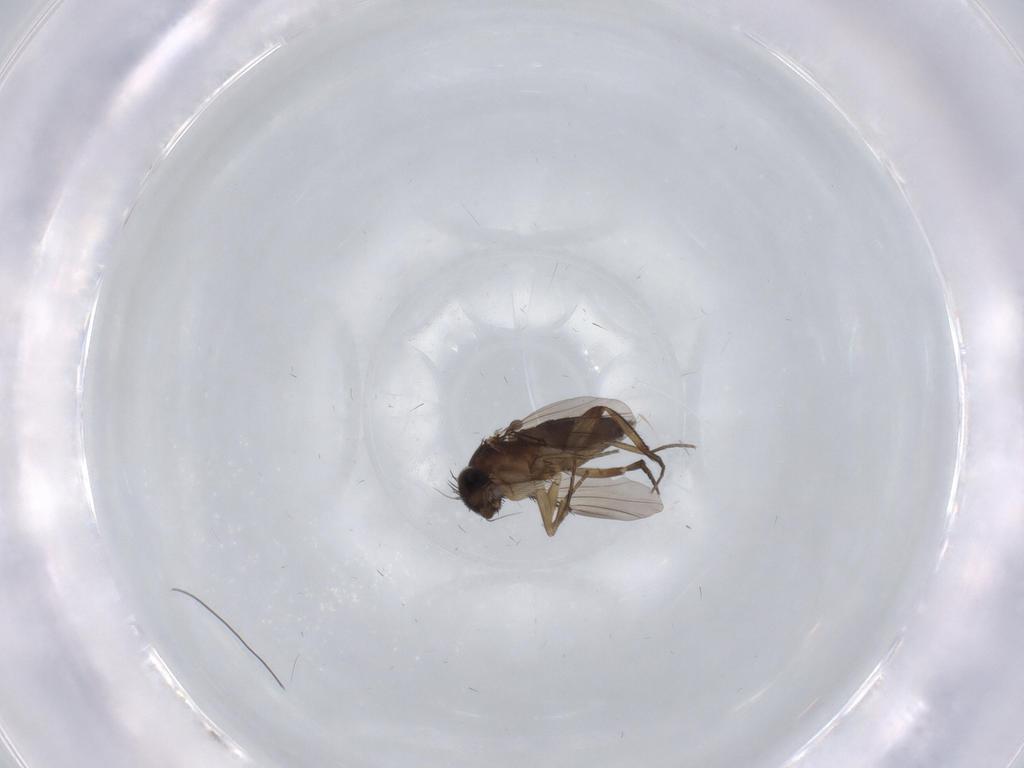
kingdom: Animalia
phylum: Arthropoda
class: Insecta
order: Diptera
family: Phoridae
